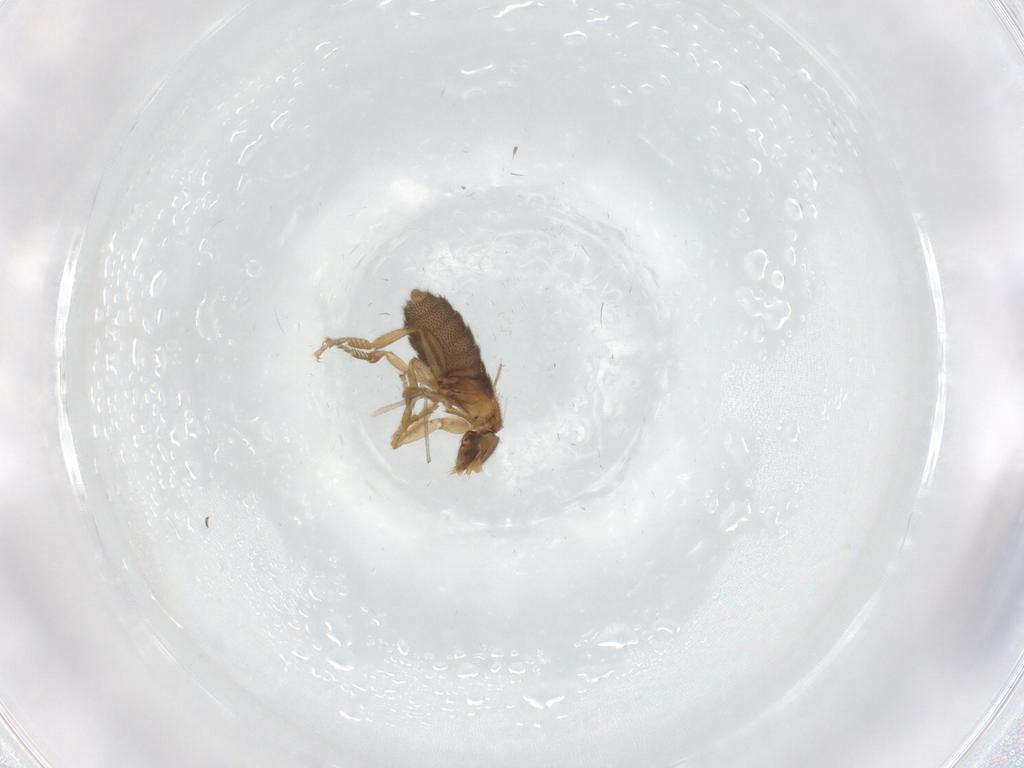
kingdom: Animalia
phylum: Arthropoda
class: Insecta
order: Diptera
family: Chironomidae
